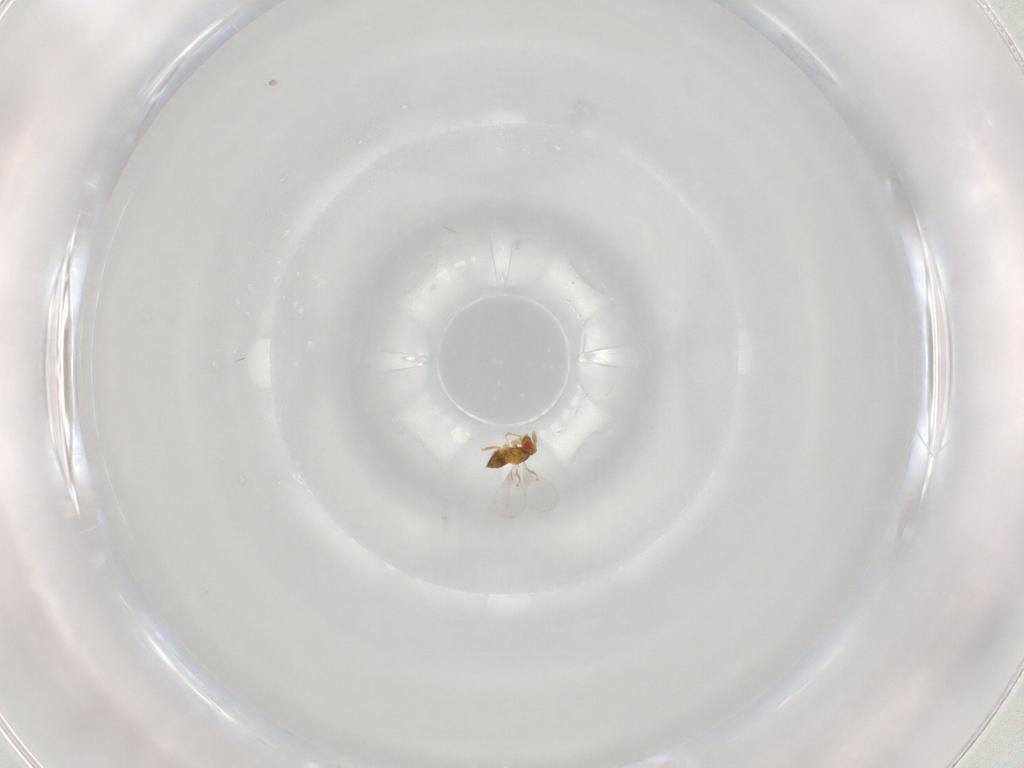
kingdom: Animalia
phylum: Arthropoda
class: Insecta
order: Hymenoptera
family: Trichogrammatidae
